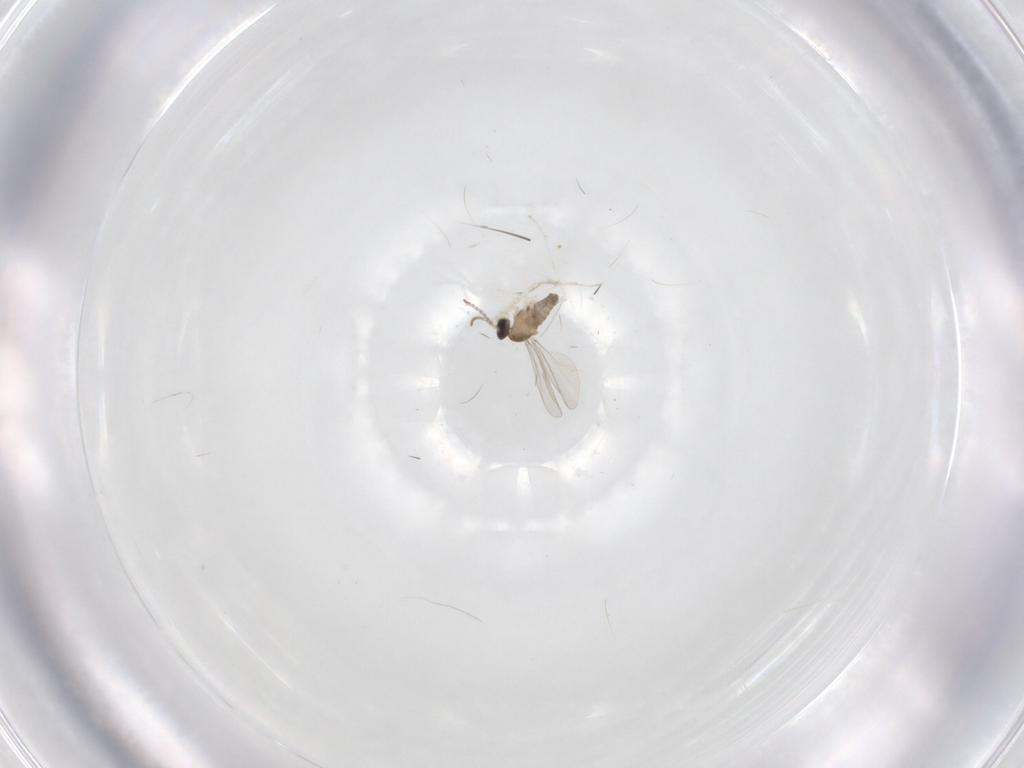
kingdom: Animalia
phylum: Arthropoda
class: Insecta
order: Diptera
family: Cecidomyiidae
